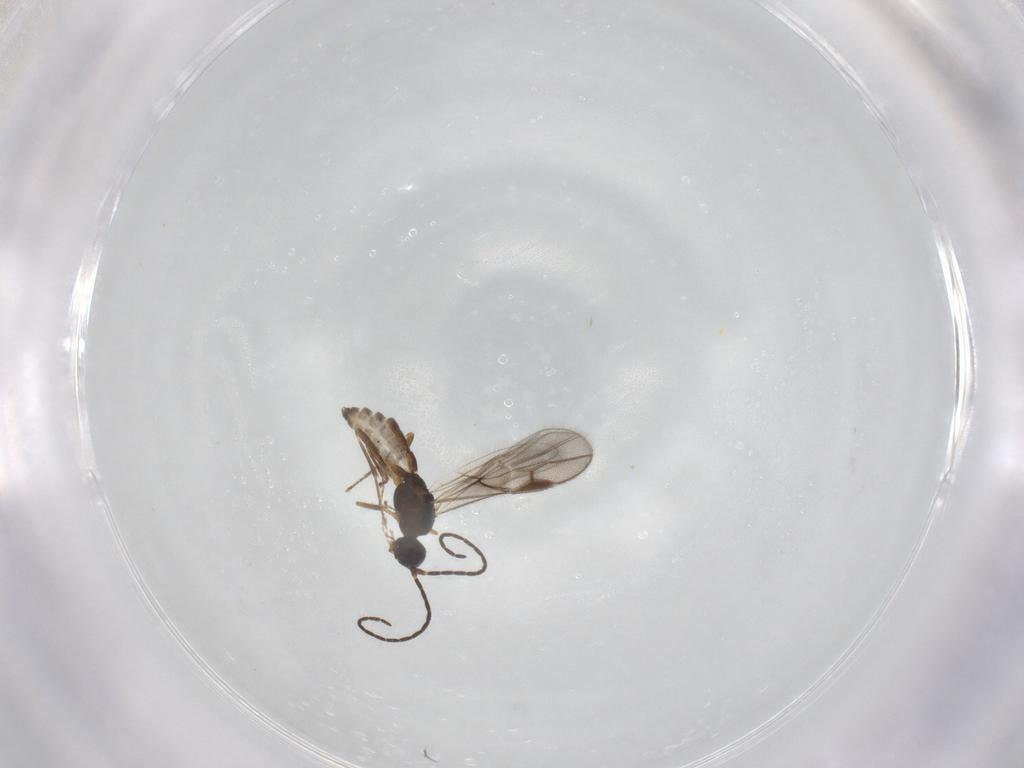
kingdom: Animalia
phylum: Arthropoda
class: Insecta
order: Hymenoptera
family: Braconidae
